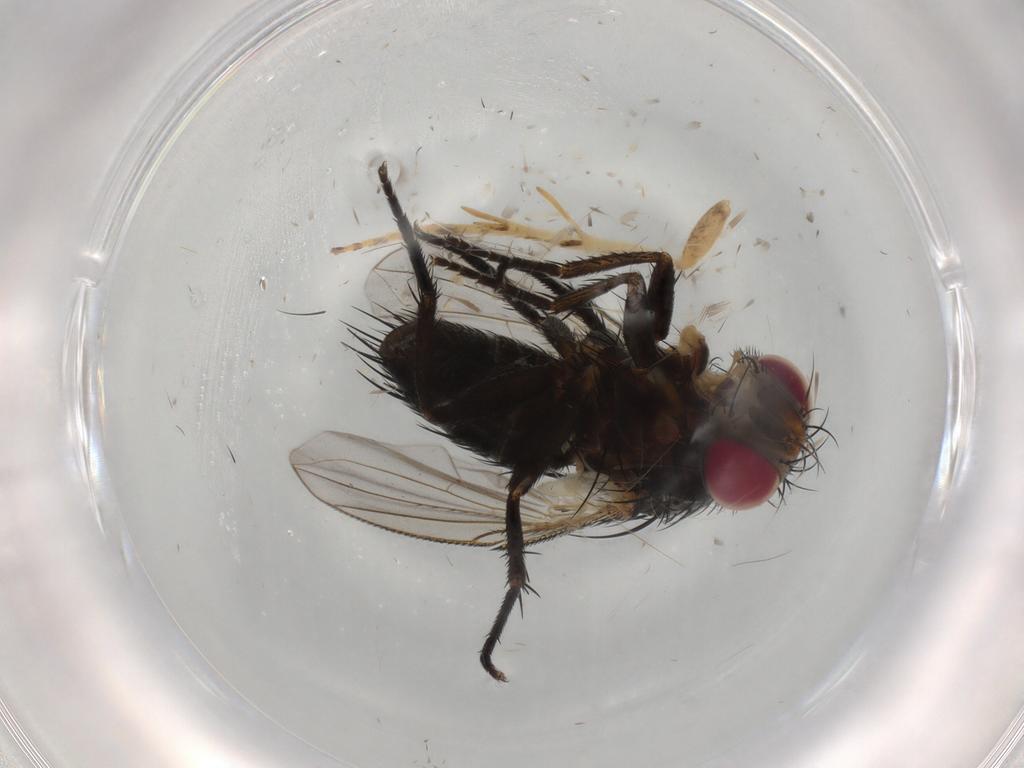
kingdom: Animalia
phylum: Arthropoda
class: Insecta
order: Diptera
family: Tachinidae
